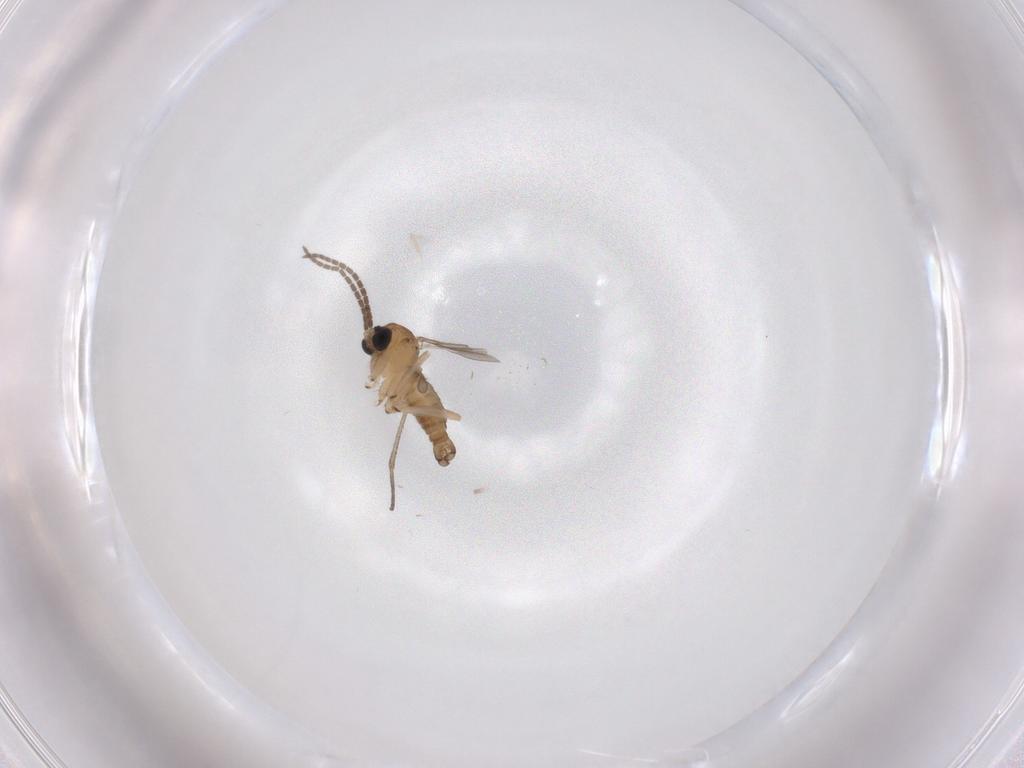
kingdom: Animalia
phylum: Arthropoda
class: Insecta
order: Diptera
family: Sciaridae
